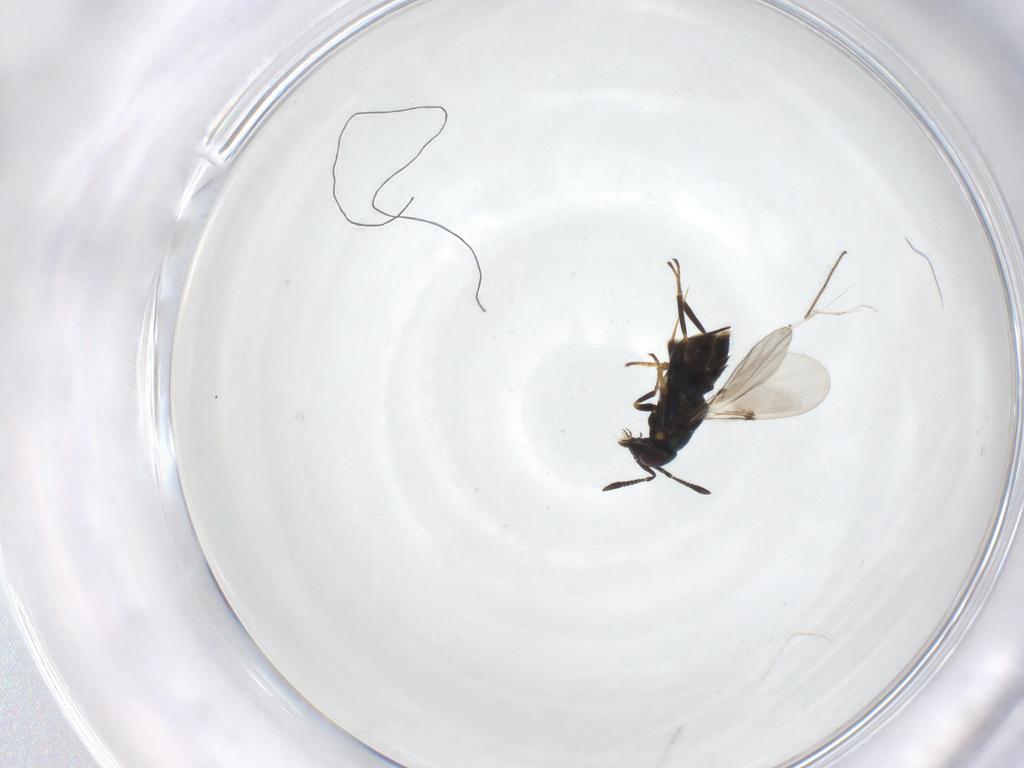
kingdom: Animalia
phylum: Arthropoda
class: Insecta
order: Hymenoptera
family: Encyrtidae
